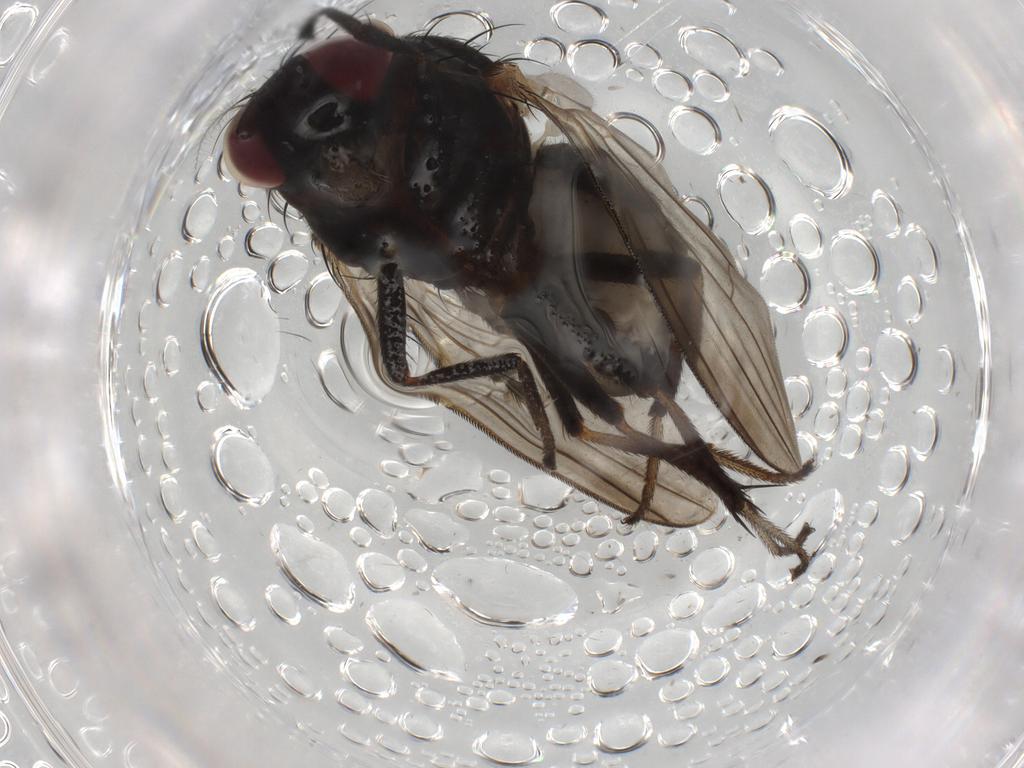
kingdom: Animalia
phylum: Arthropoda
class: Insecta
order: Diptera
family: Lauxaniidae
